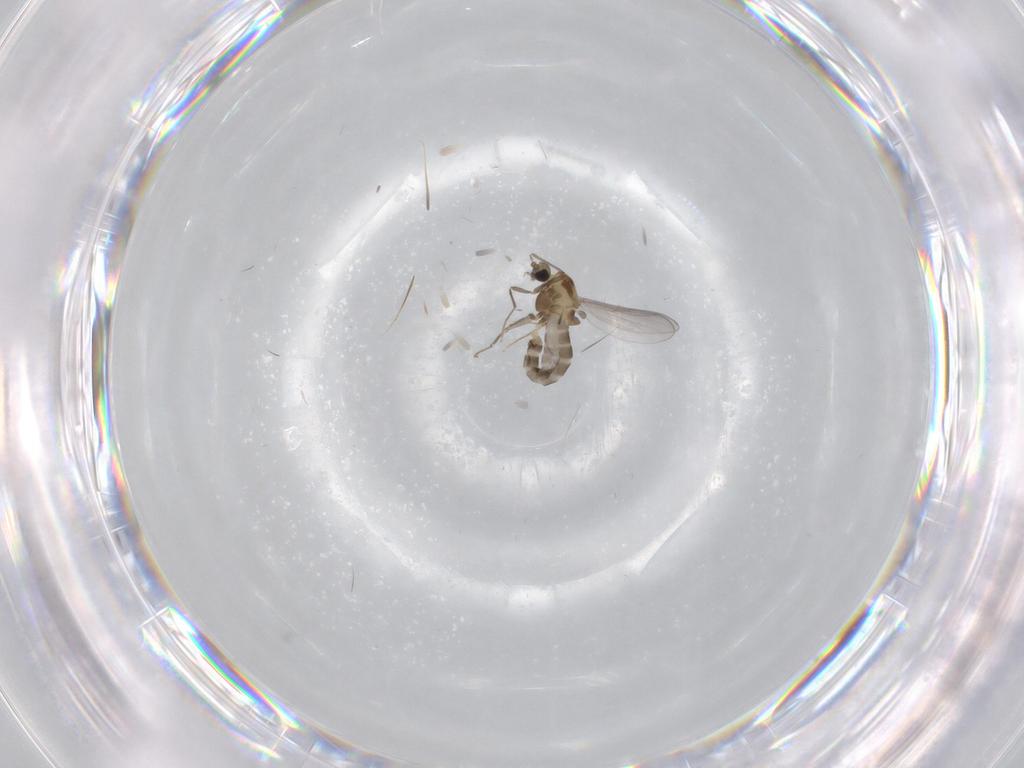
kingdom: Animalia
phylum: Arthropoda
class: Insecta
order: Diptera
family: Chironomidae
